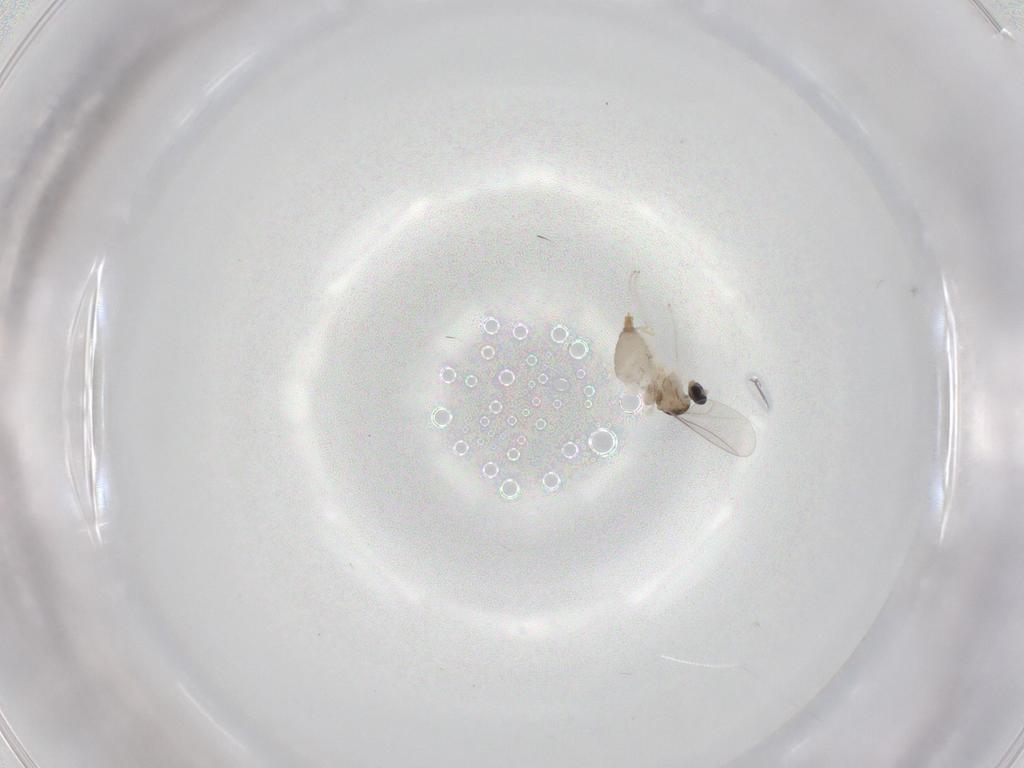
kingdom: Animalia
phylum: Arthropoda
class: Insecta
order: Diptera
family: Cecidomyiidae
